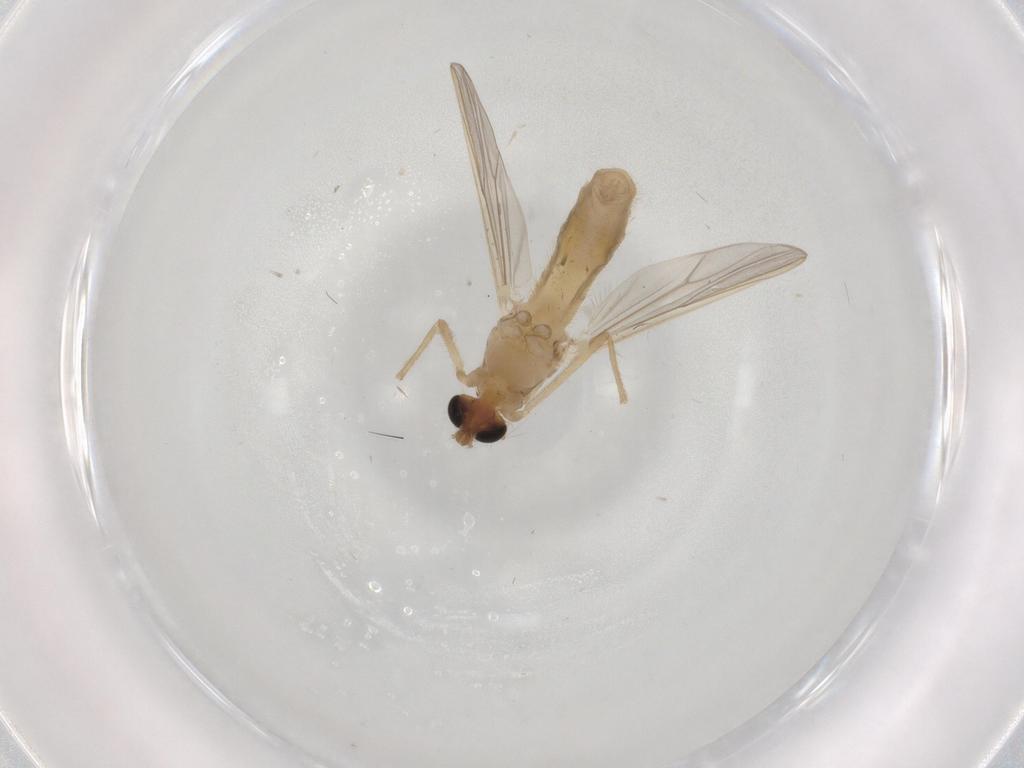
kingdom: Animalia
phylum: Arthropoda
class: Insecta
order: Diptera
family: Chironomidae
